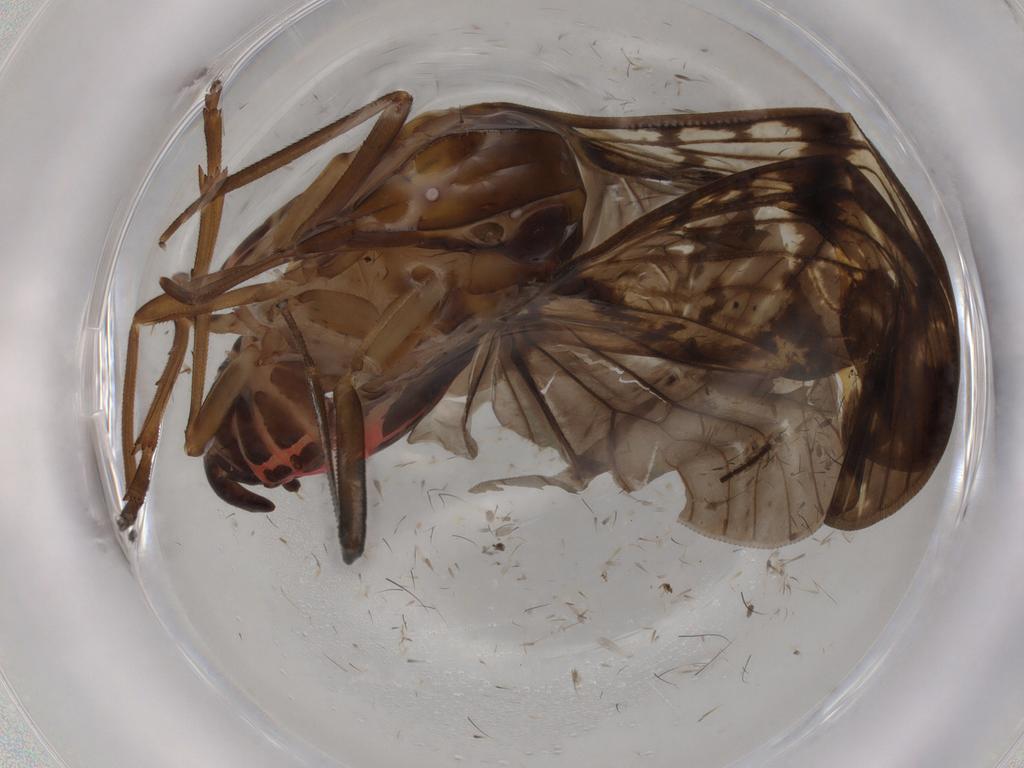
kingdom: Animalia
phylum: Arthropoda
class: Insecta
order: Hemiptera
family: Cixiidae
